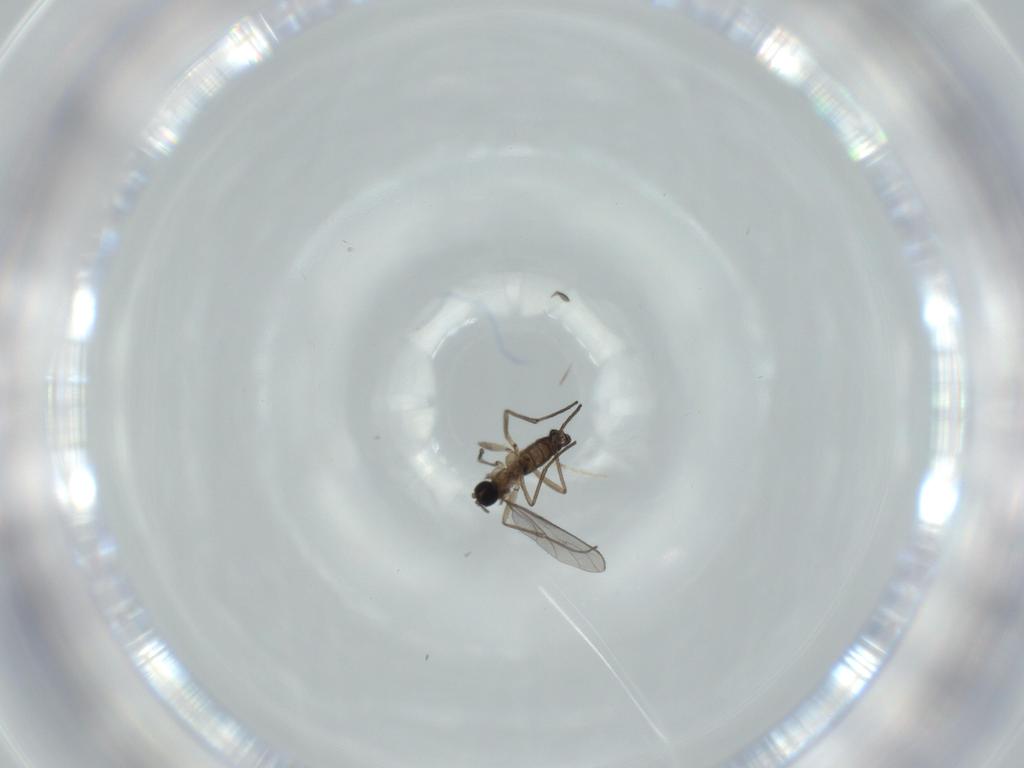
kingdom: Animalia
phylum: Arthropoda
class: Insecta
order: Diptera
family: Sciaridae
